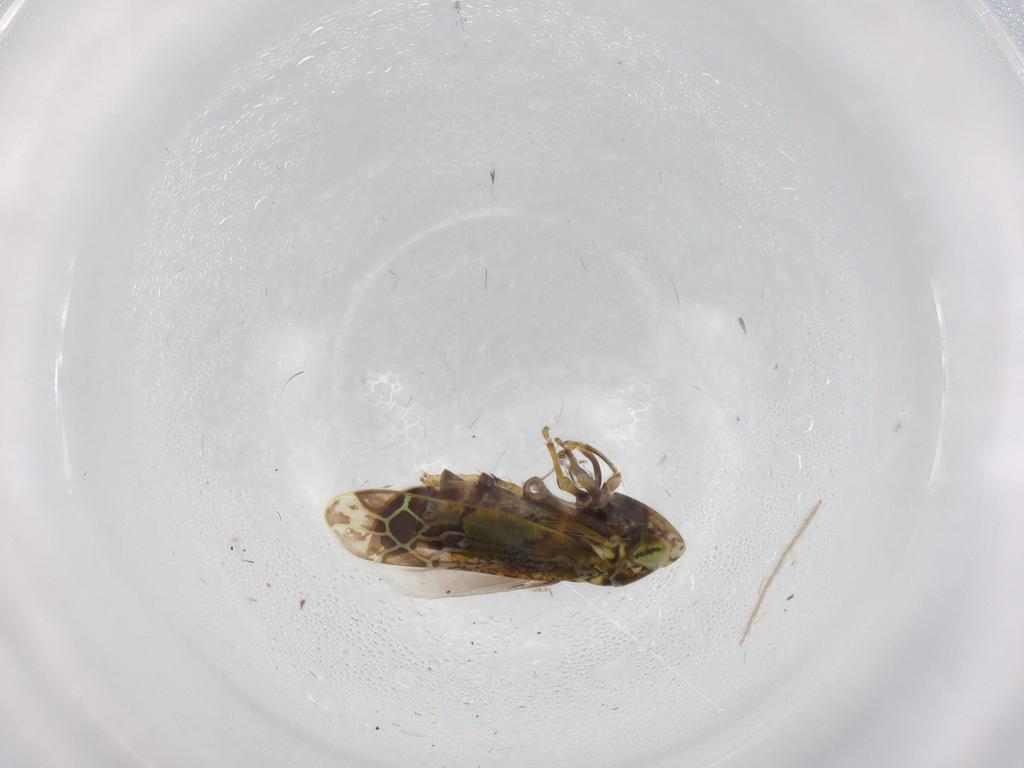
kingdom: Animalia
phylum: Arthropoda
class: Insecta
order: Hemiptera
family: Cicadellidae
